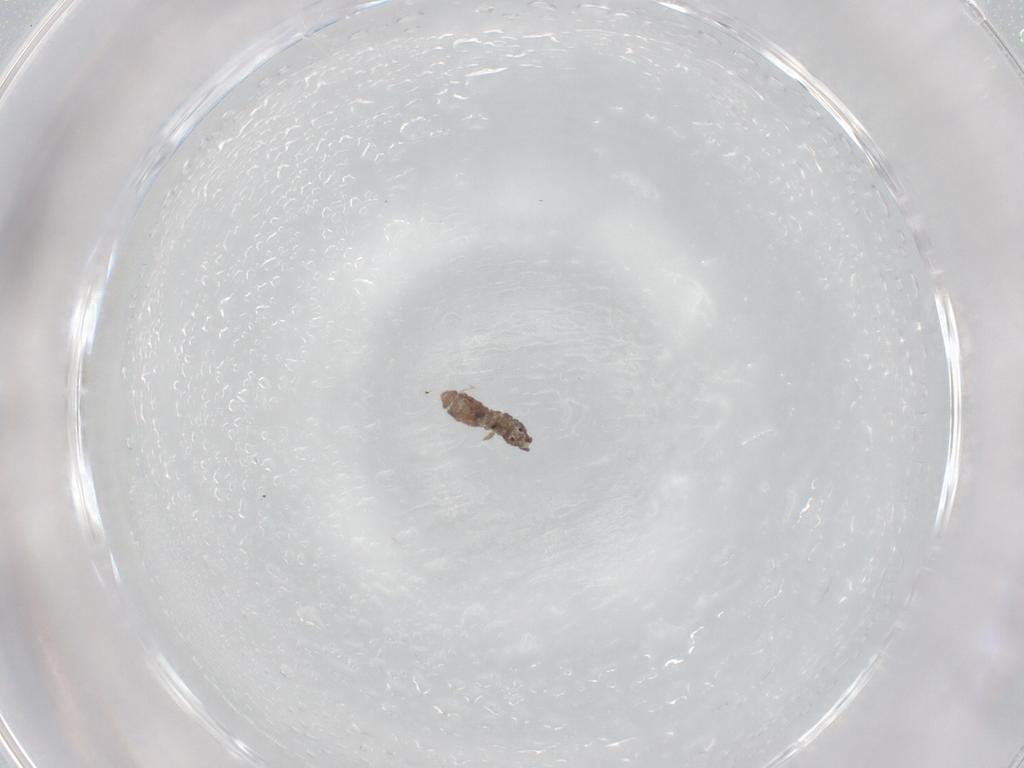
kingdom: Animalia
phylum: Arthropoda
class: Collembola
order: Poduromorpha
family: Hypogastruridae
